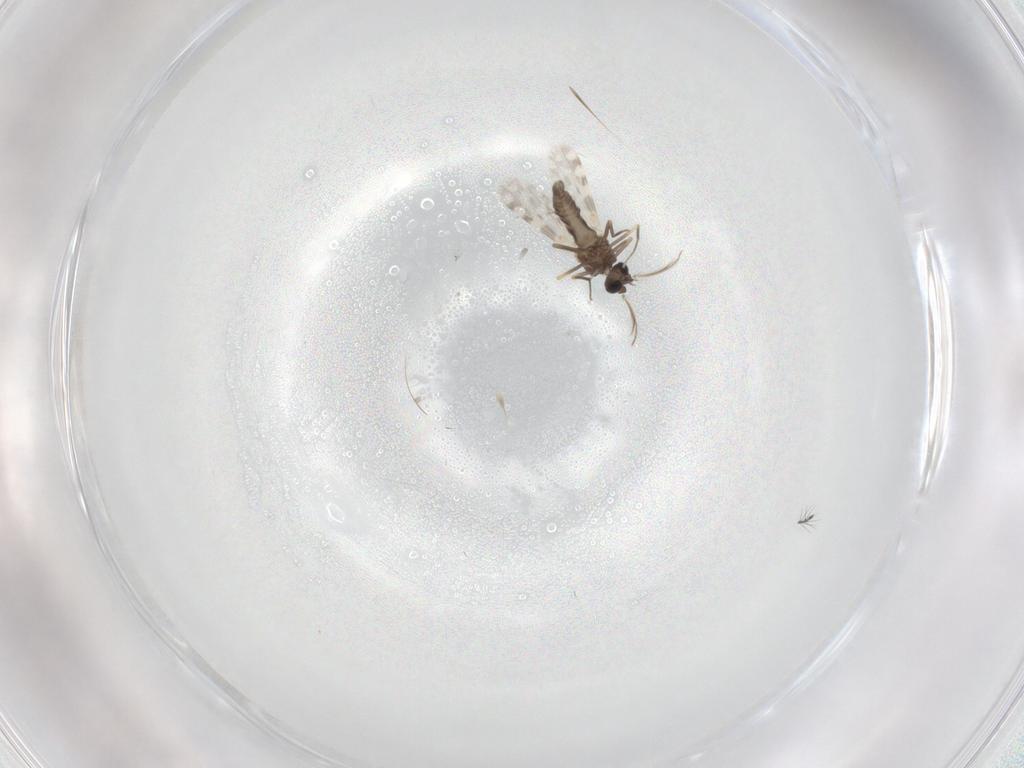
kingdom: Animalia
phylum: Arthropoda
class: Insecta
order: Diptera
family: Ceratopogonidae
